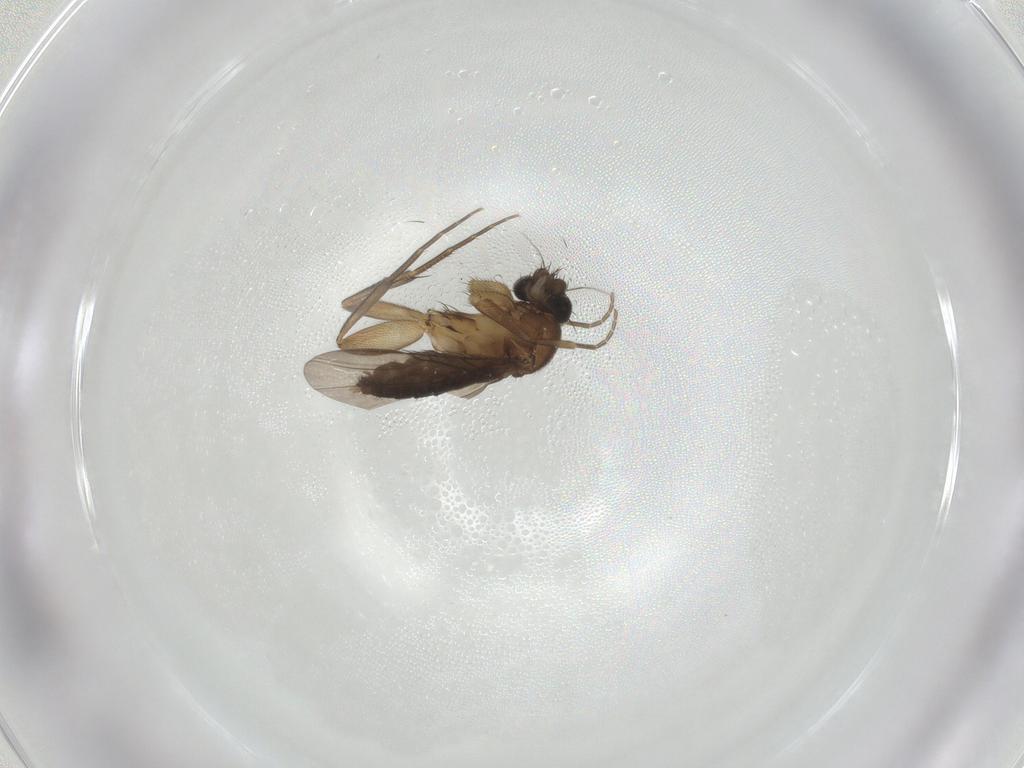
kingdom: Animalia
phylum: Arthropoda
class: Insecta
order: Diptera
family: Phoridae
